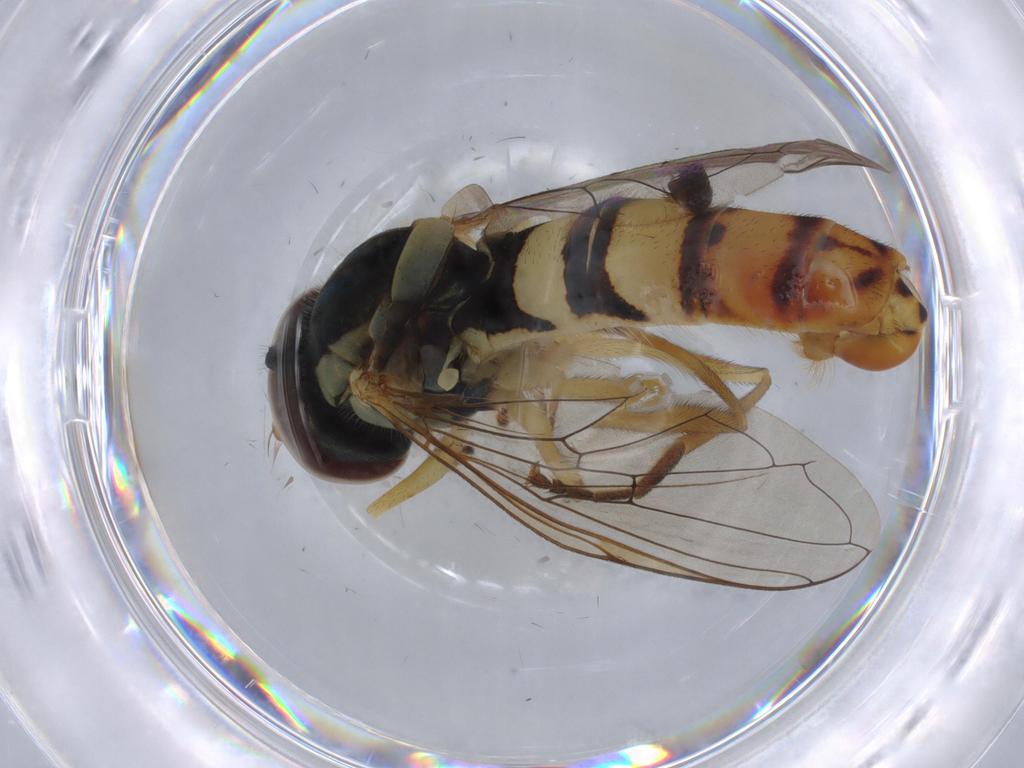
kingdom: Animalia
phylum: Arthropoda
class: Insecta
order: Diptera
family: Syrphidae
